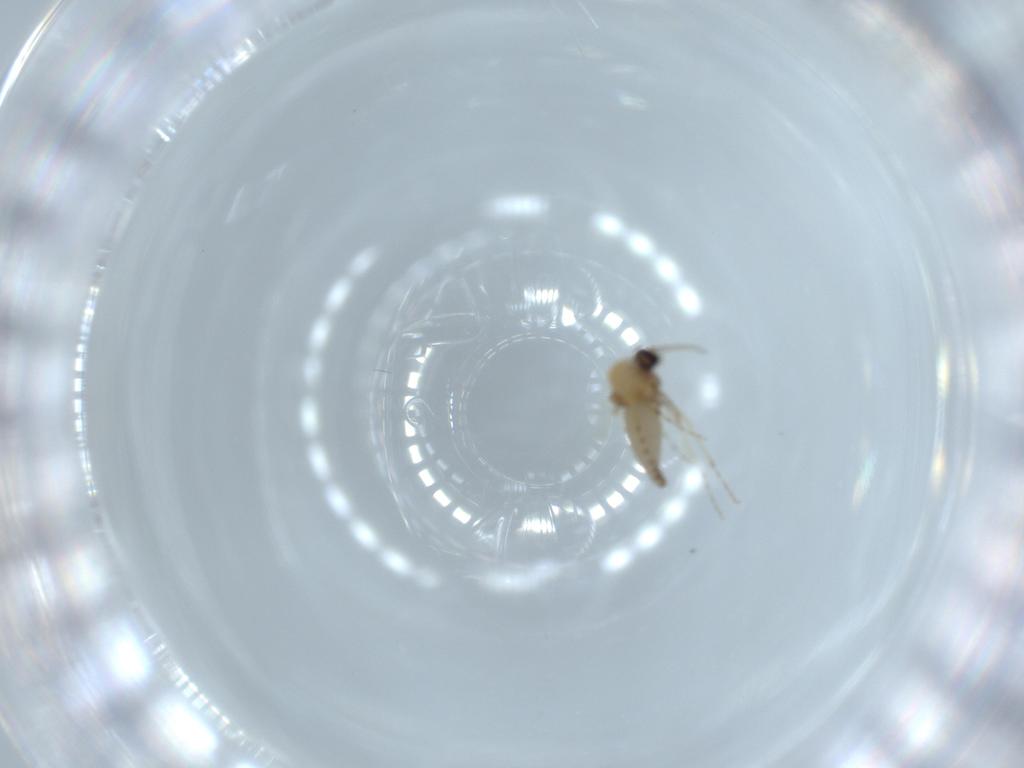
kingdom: Animalia
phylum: Arthropoda
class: Insecta
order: Diptera
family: Ceratopogonidae
